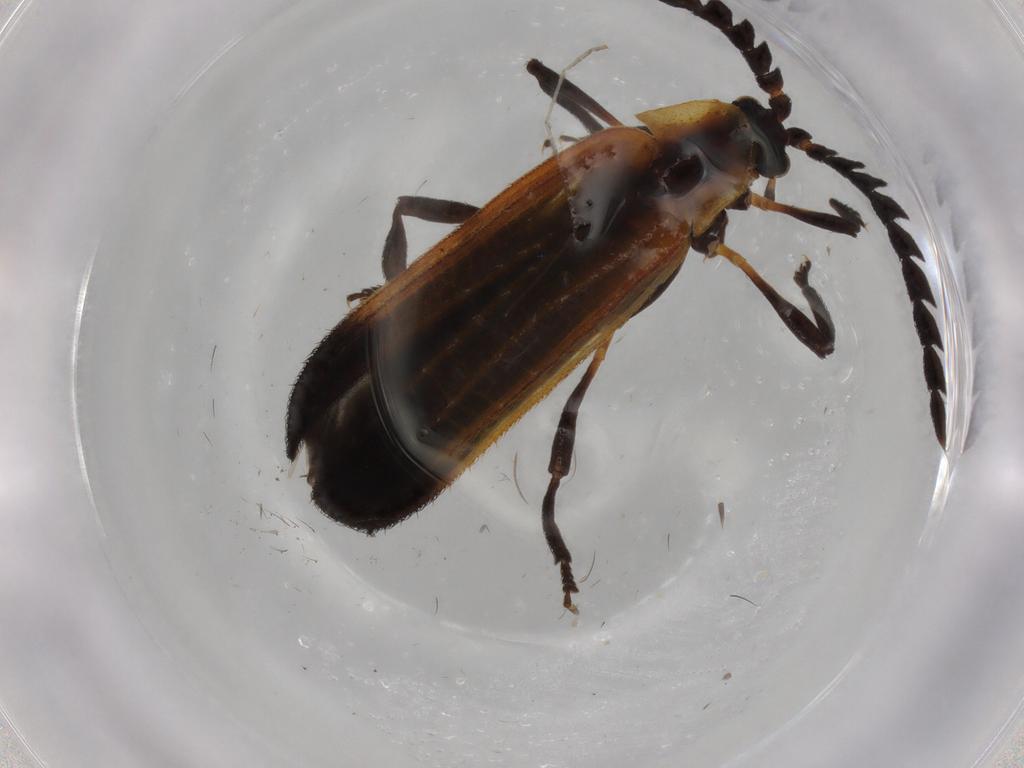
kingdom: Animalia
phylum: Arthropoda
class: Insecta
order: Coleoptera
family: Lycidae
